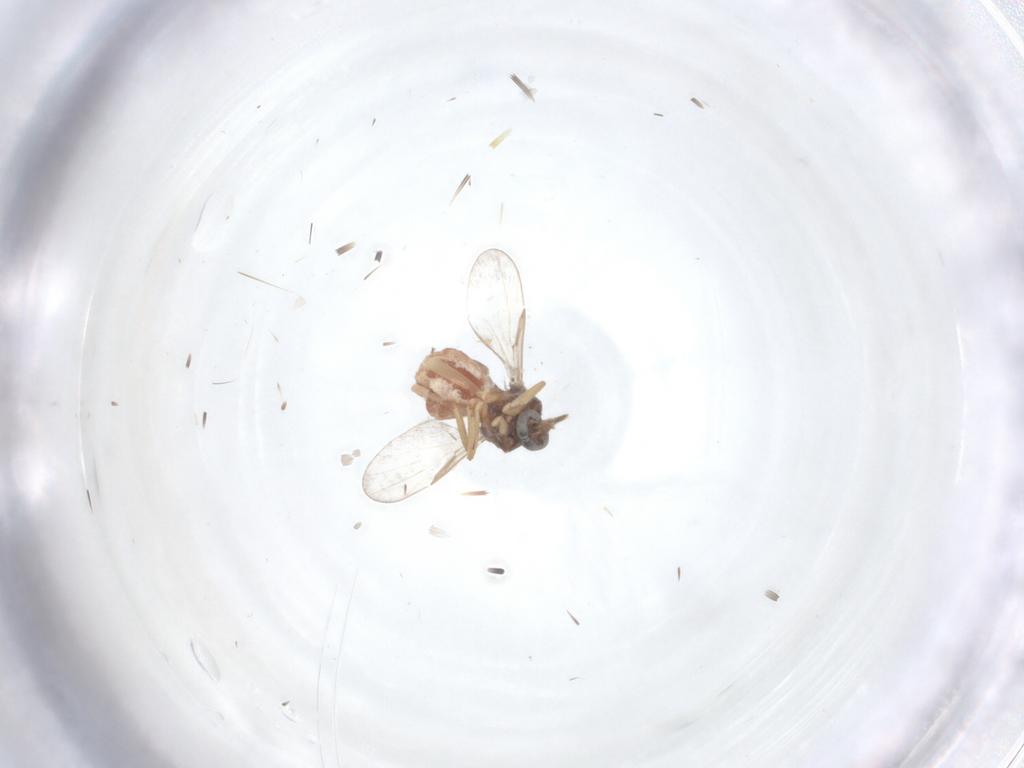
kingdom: Animalia
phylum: Arthropoda
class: Insecta
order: Diptera
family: Ceratopogonidae
